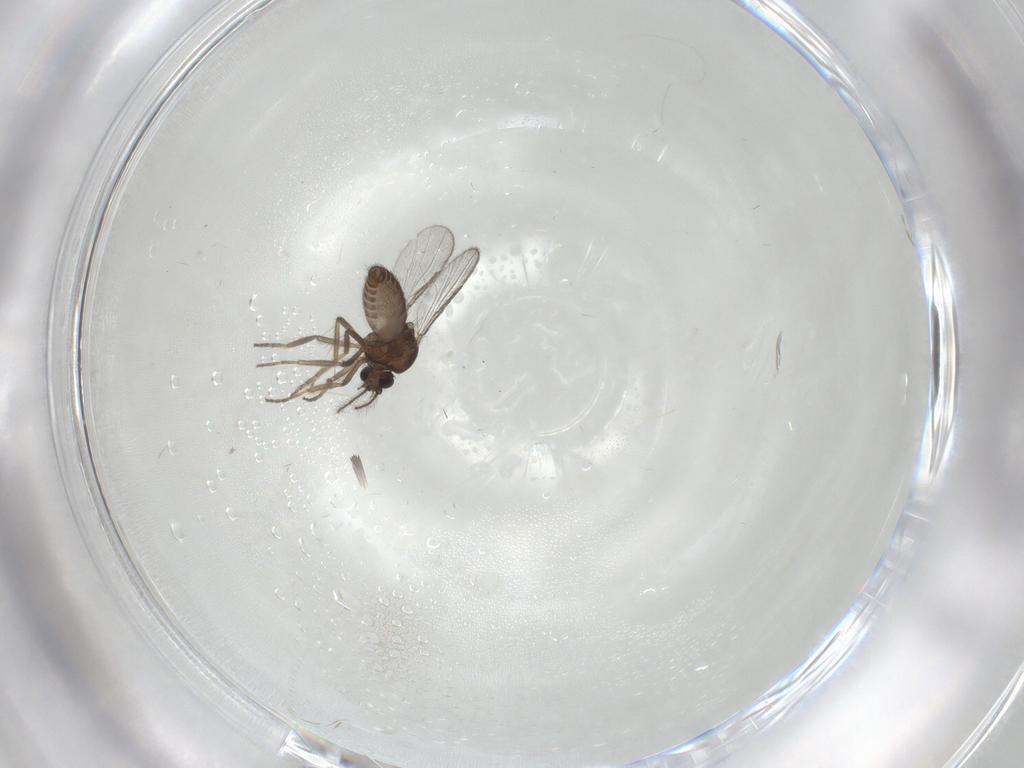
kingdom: Animalia
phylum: Arthropoda
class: Insecta
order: Diptera
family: Ceratopogonidae
